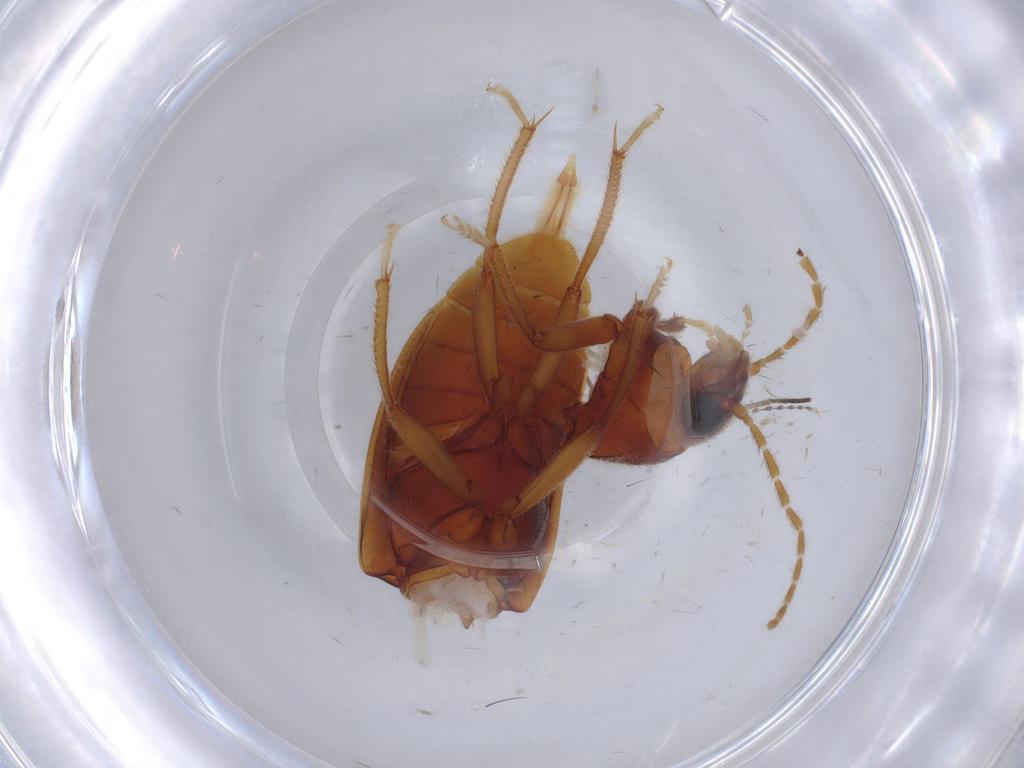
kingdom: Animalia
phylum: Arthropoda
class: Insecta
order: Coleoptera
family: Ptilodactylidae
